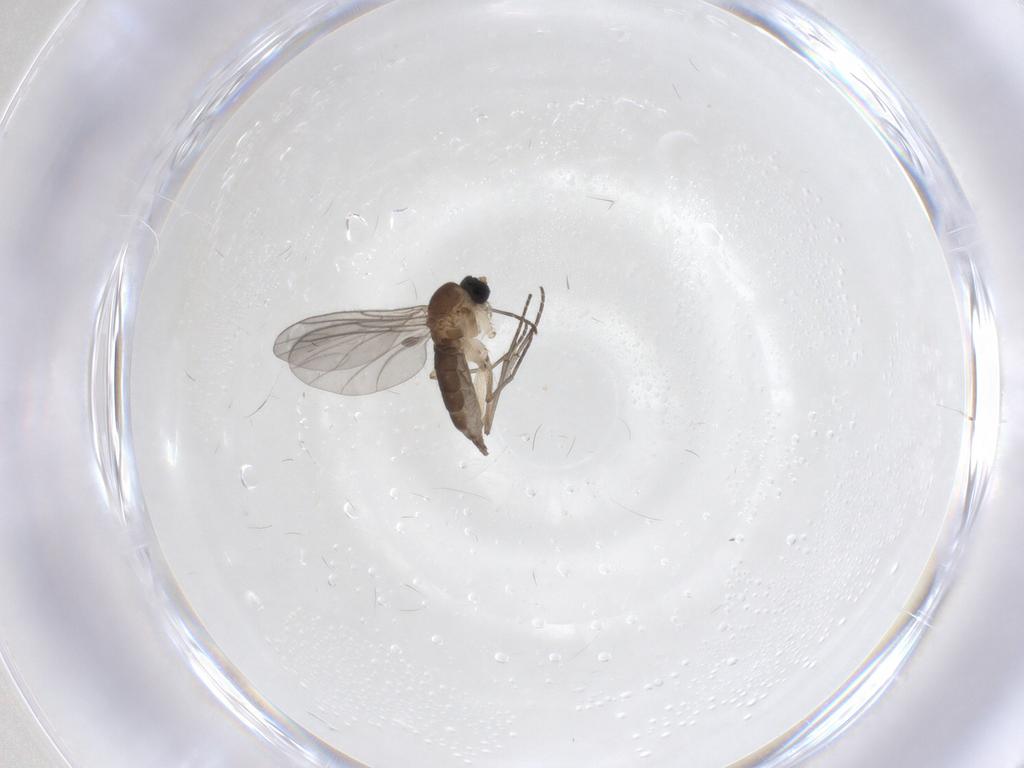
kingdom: Animalia
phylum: Arthropoda
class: Insecta
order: Diptera
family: Sciaridae
